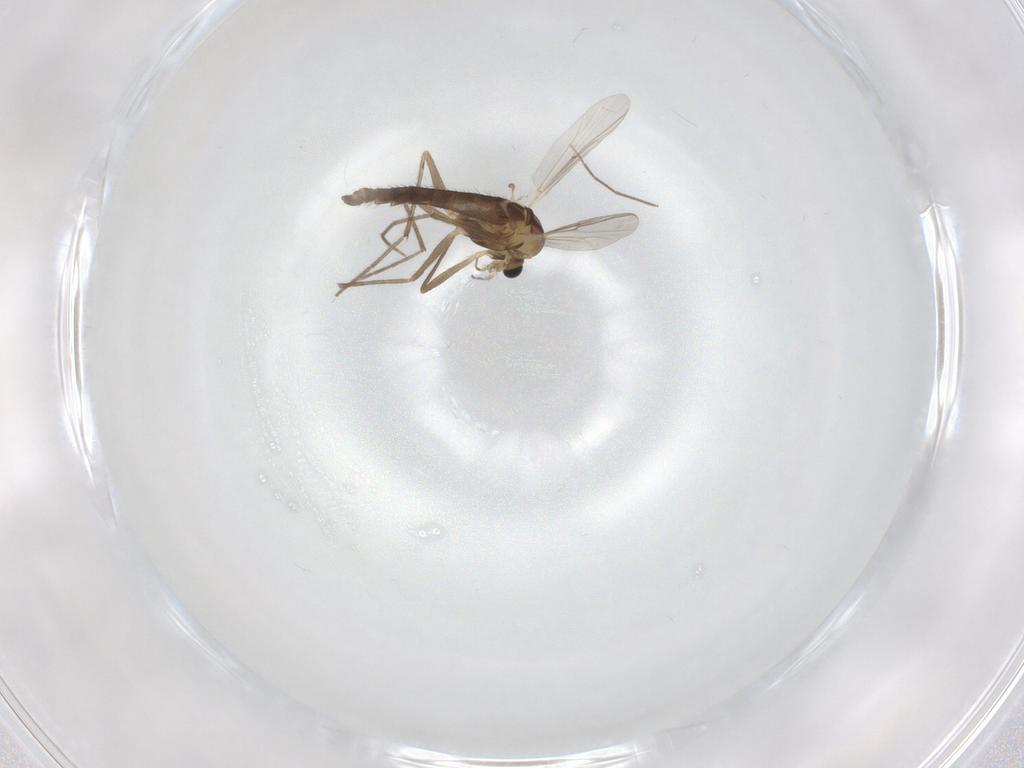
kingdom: Animalia
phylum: Arthropoda
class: Insecta
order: Diptera
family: Chironomidae
